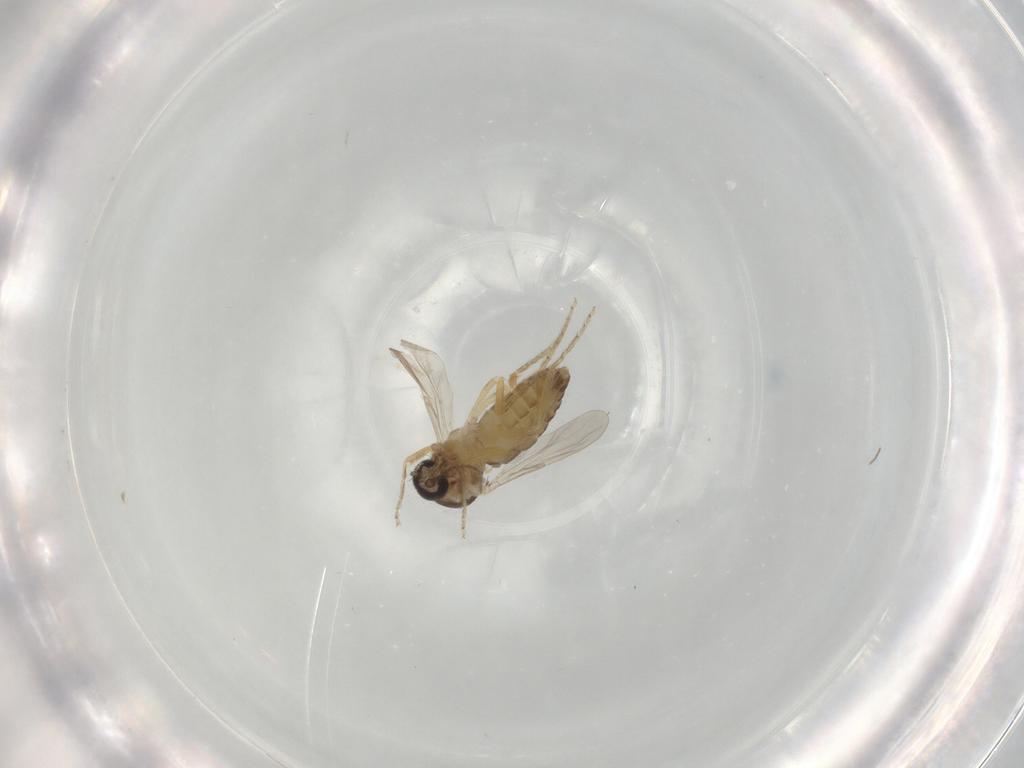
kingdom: Animalia
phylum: Arthropoda
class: Insecta
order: Diptera
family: Ceratopogonidae
